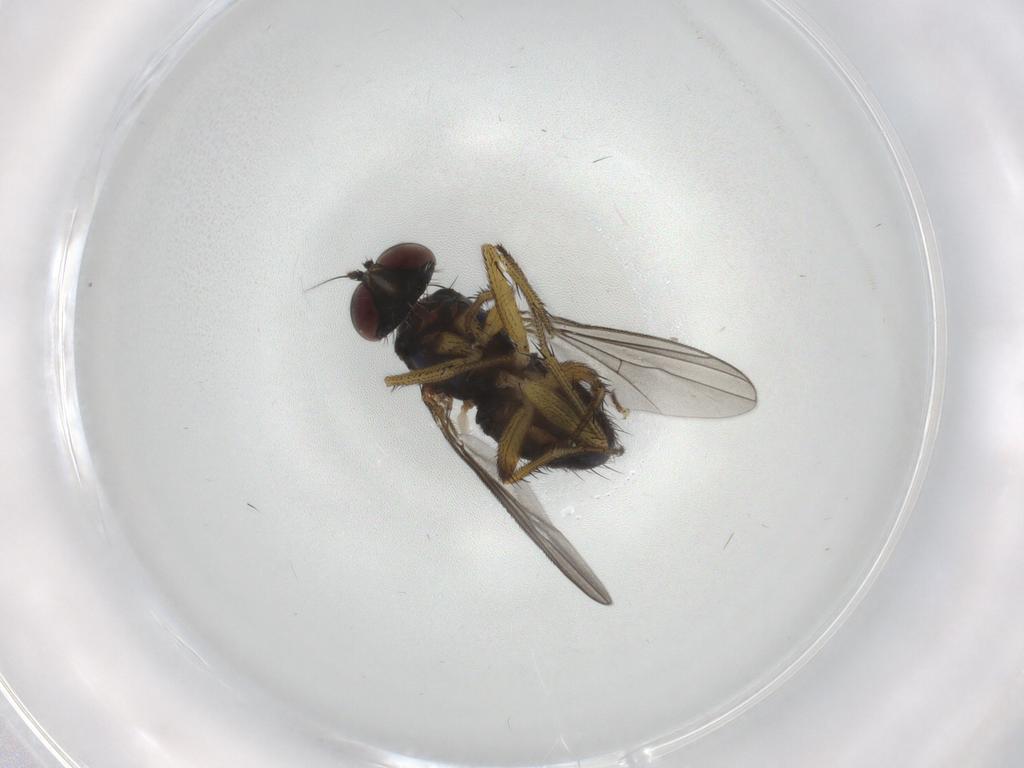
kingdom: Animalia
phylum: Arthropoda
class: Insecta
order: Diptera
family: Dolichopodidae
